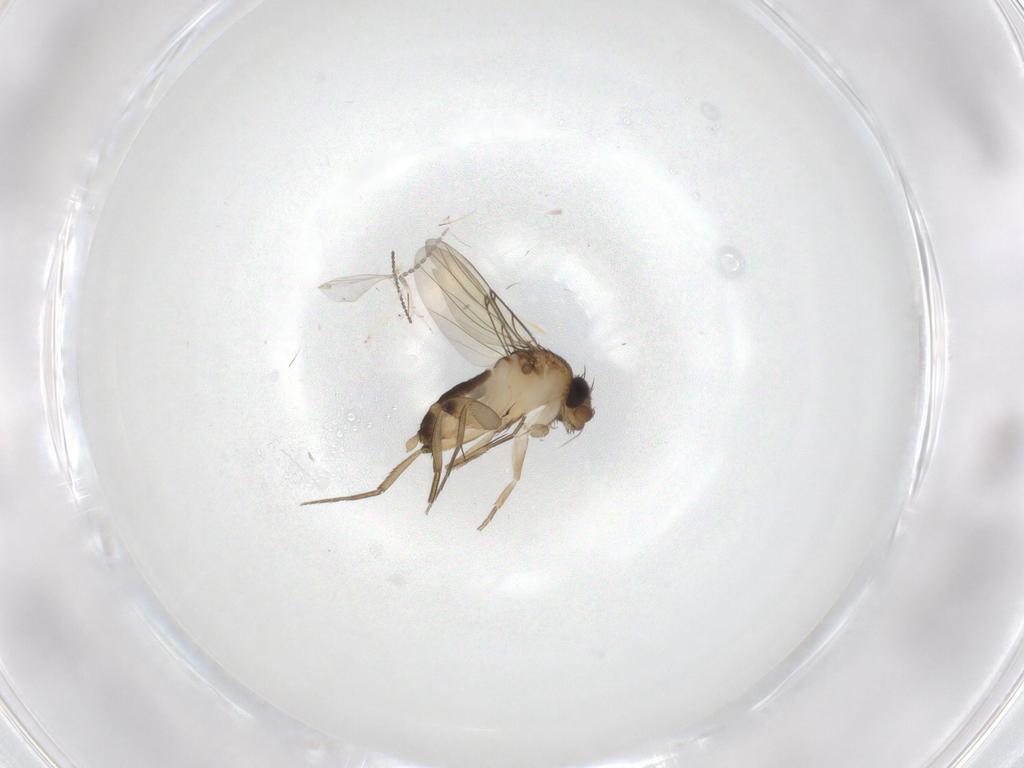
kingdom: Animalia
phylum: Arthropoda
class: Insecta
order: Diptera
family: Phoridae
